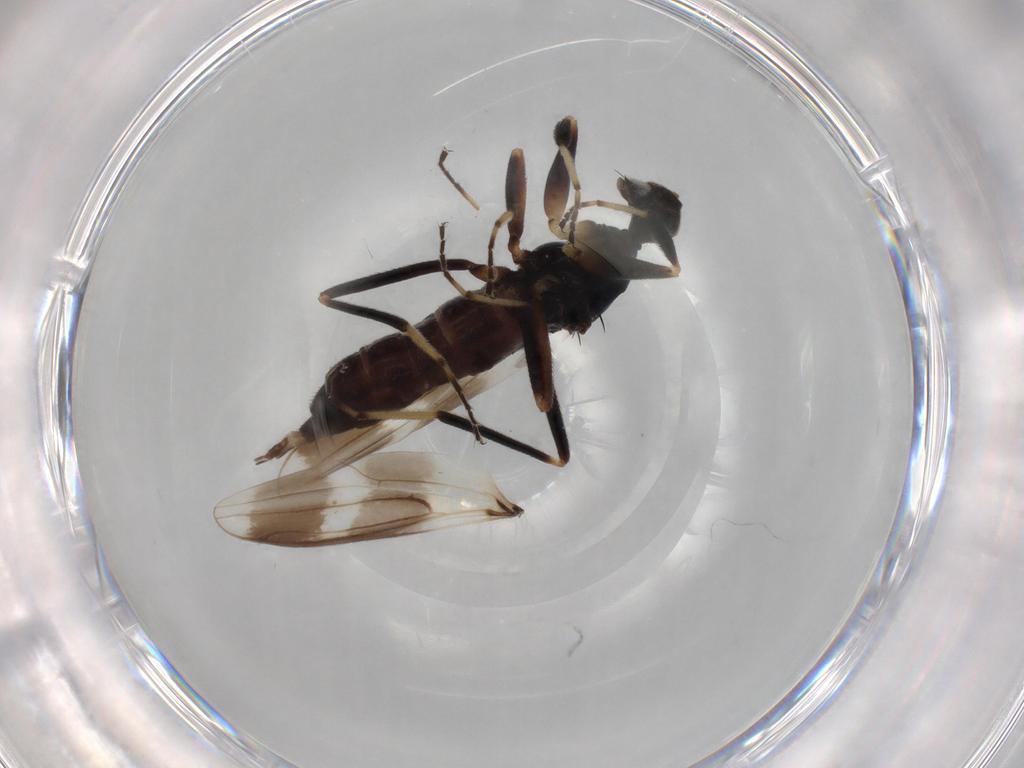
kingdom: Animalia
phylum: Arthropoda
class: Insecta
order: Diptera
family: Hybotidae
